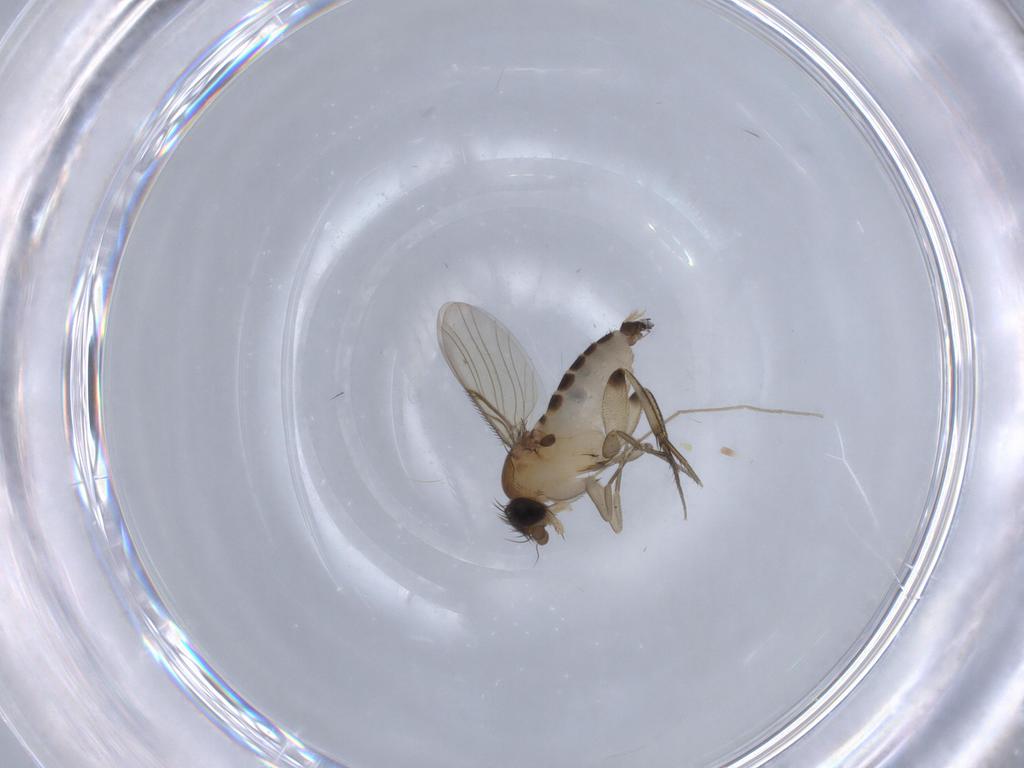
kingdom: Animalia
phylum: Arthropoda
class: Insecta
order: Diptera
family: Phoridae
